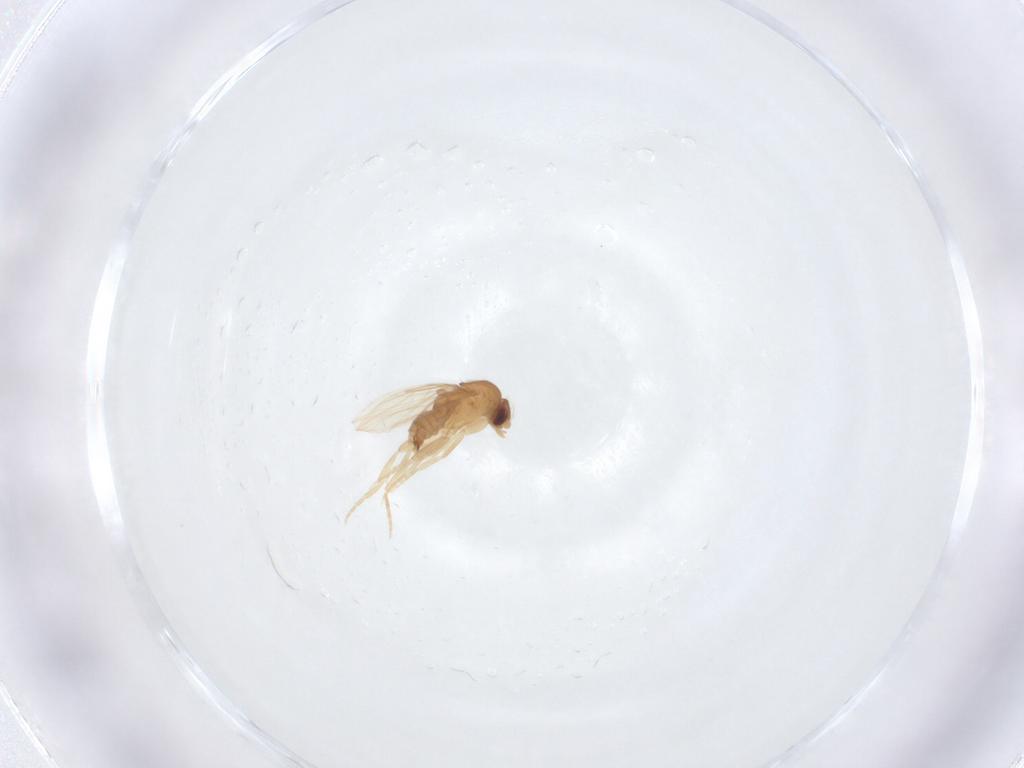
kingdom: Animalia
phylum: Arthropoda
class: Insecta
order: Diptera
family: Phoridae
